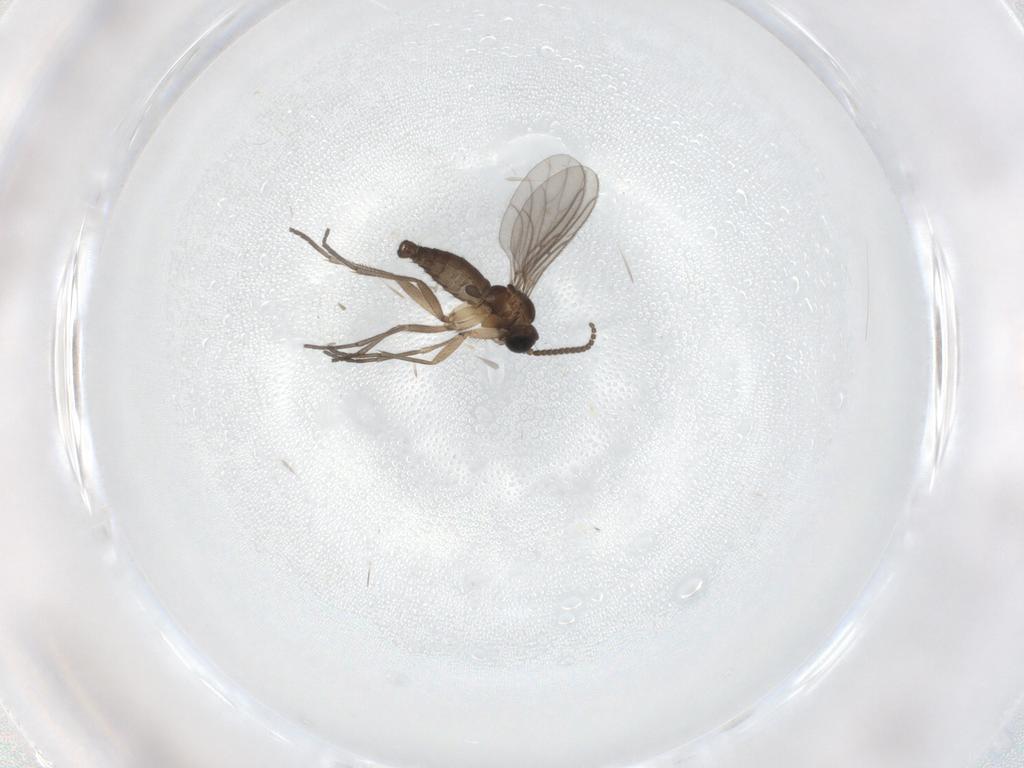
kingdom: Animalia
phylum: Arthropoda
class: Insecta
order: Diptera
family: Sciaridae
